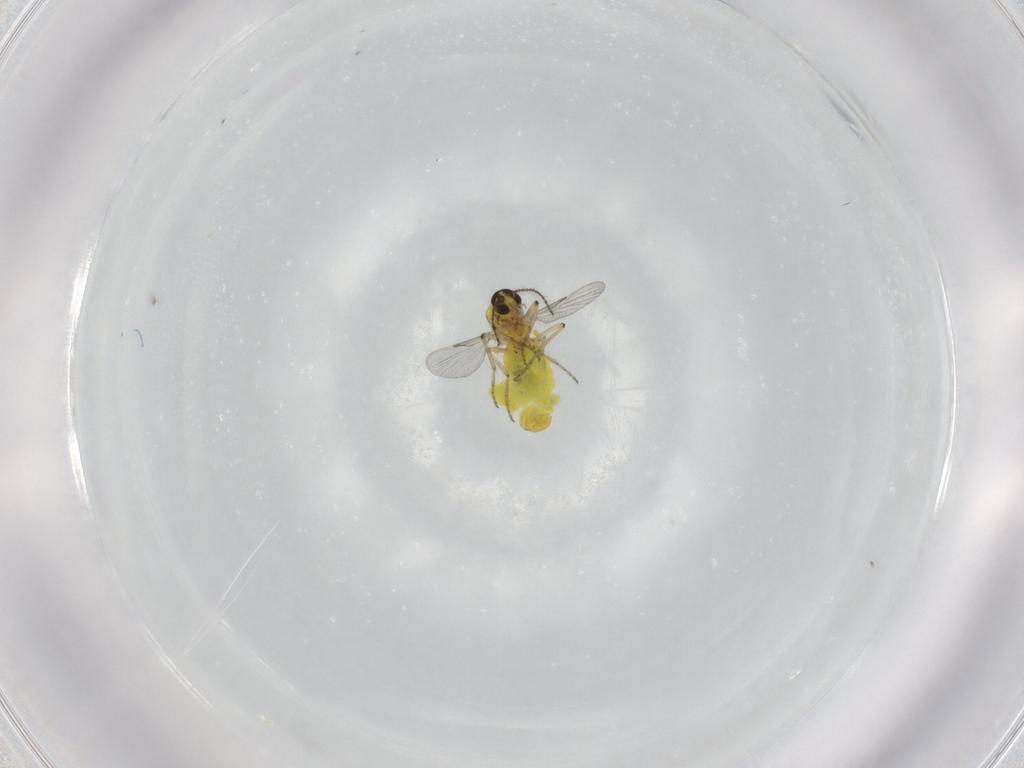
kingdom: Animalia
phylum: Arthropoda
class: Insecta
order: Diptera
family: Ceratopogonidae
